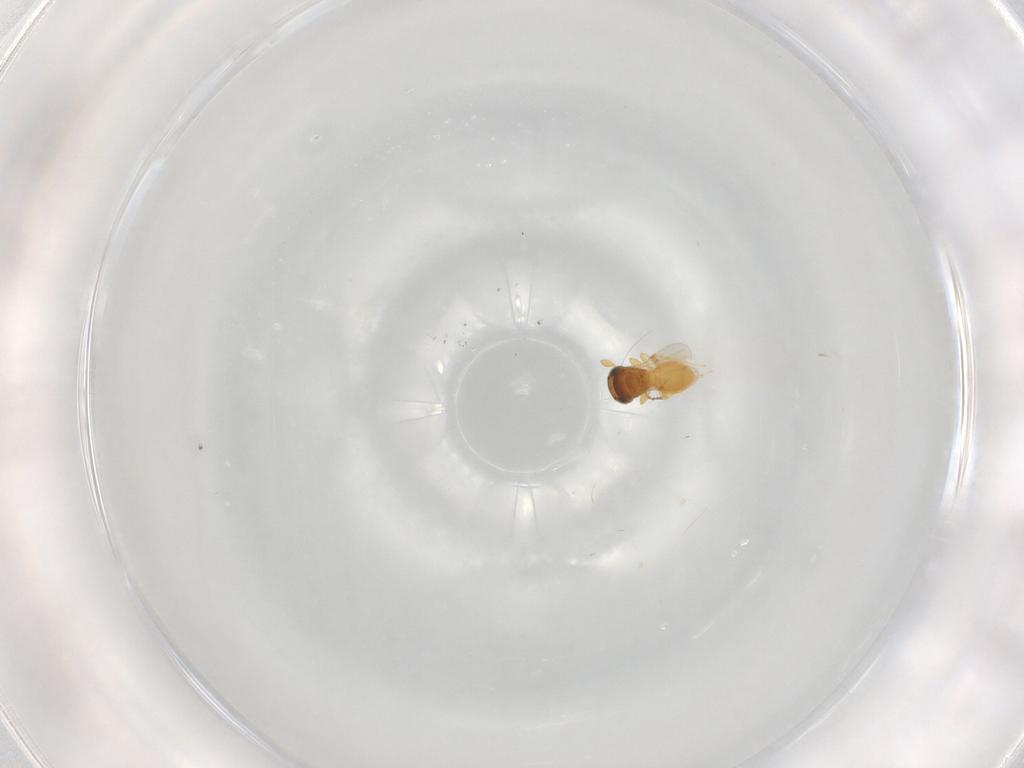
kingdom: Animalia
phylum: Arthropoda
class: Insecta
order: Hymenoptera
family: Scelionidae
